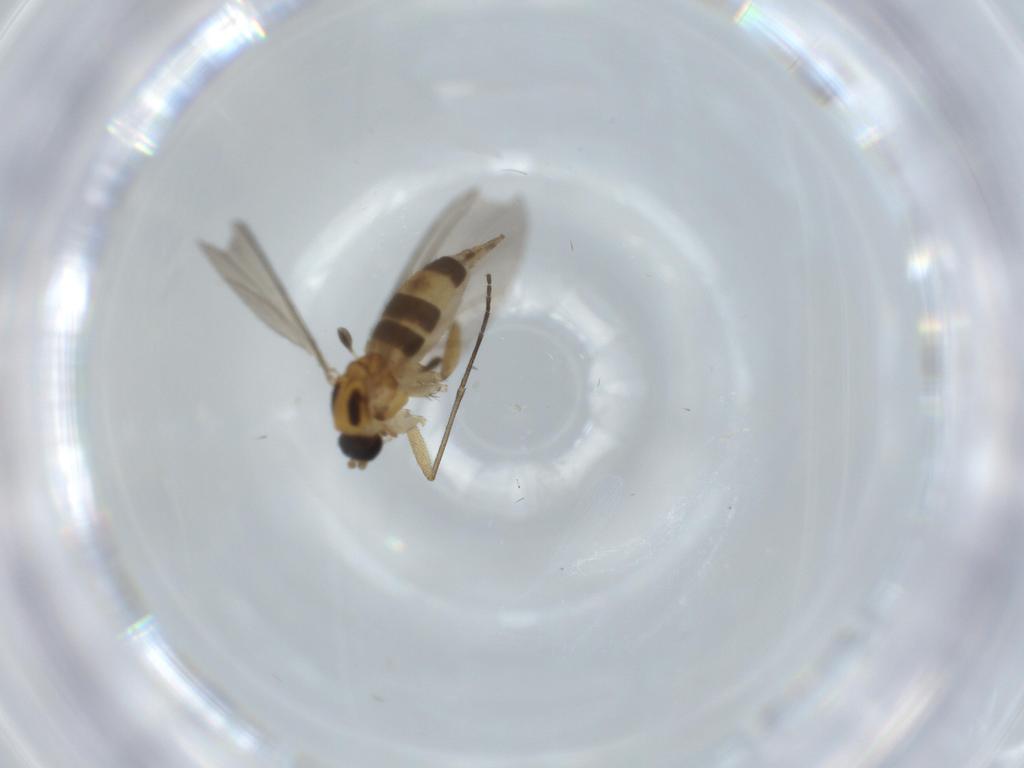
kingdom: Animalia
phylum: Arthropoda
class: Insecta
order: Diptera
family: Sciaridae
